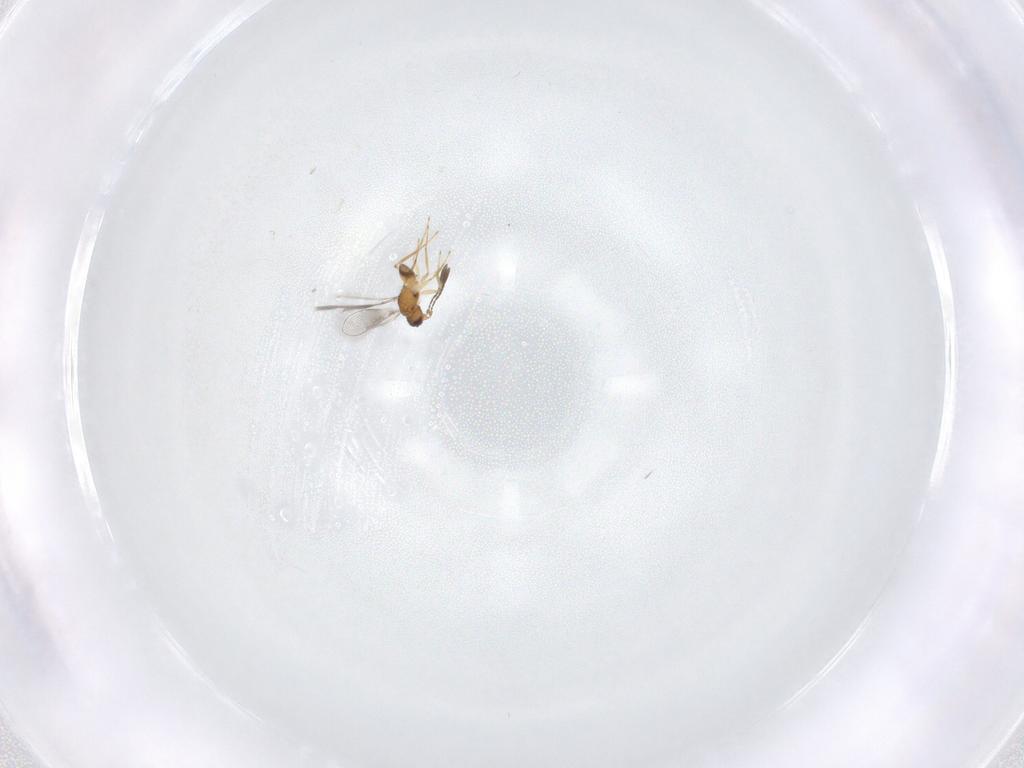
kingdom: Animalia
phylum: Arthropoda
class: Insecta
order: Hymenoptera
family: Mymaridae
